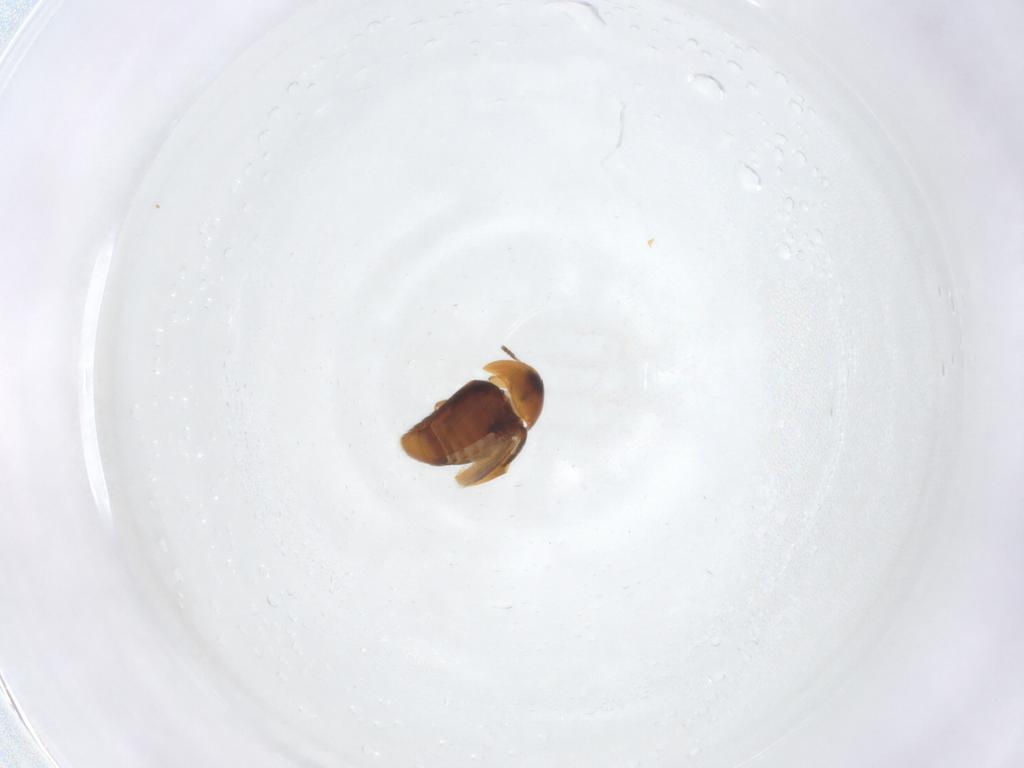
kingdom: Animalia
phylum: Arthropoda
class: Insecta
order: Coleoptera
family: Corylophidae
